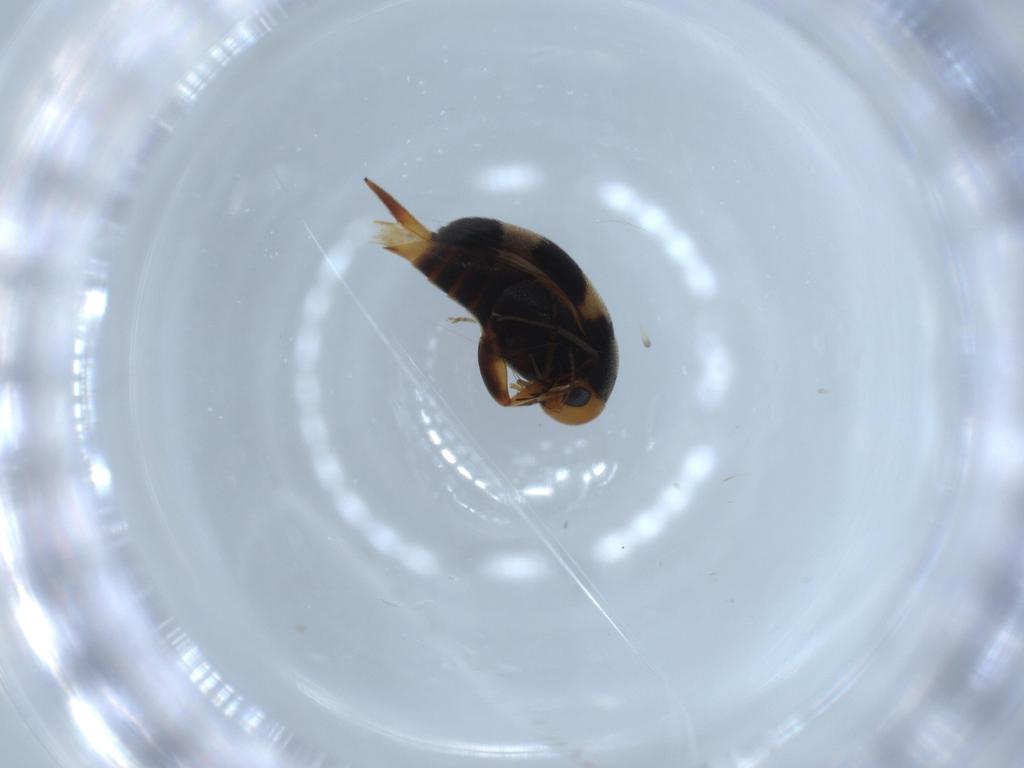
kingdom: Animalia
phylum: Arthropoda
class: Insecta
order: Coleoptera
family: Mordellidae
